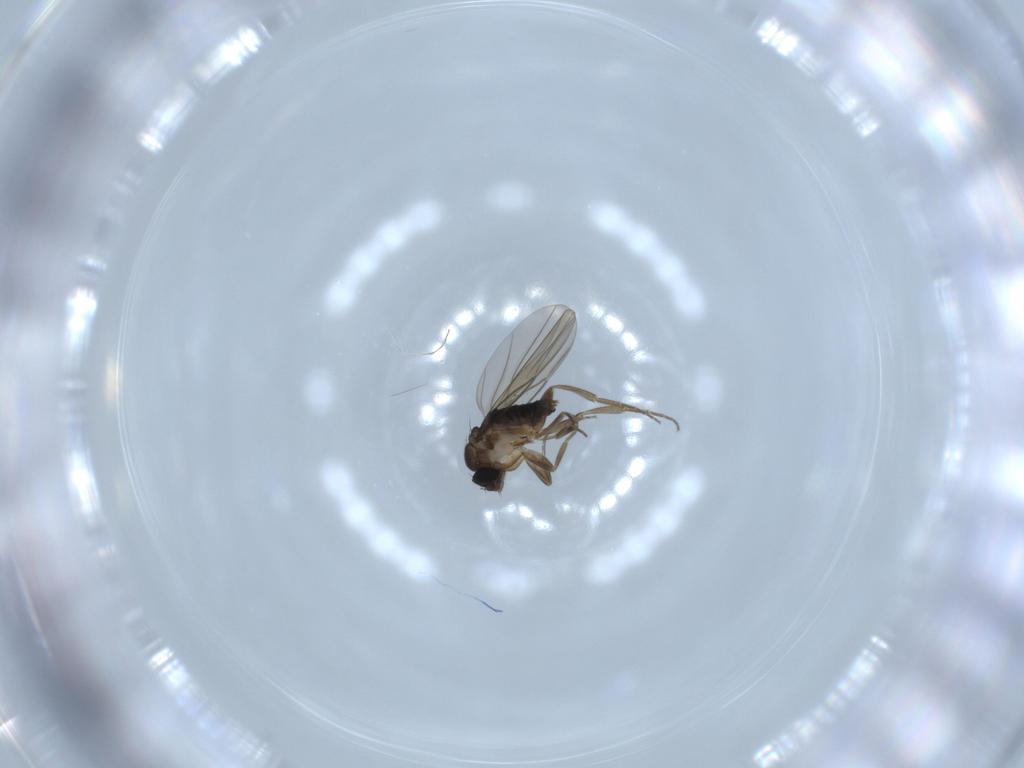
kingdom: Animalia
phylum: Arthropoda
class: Insecta
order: Diptera
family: Phoridae
